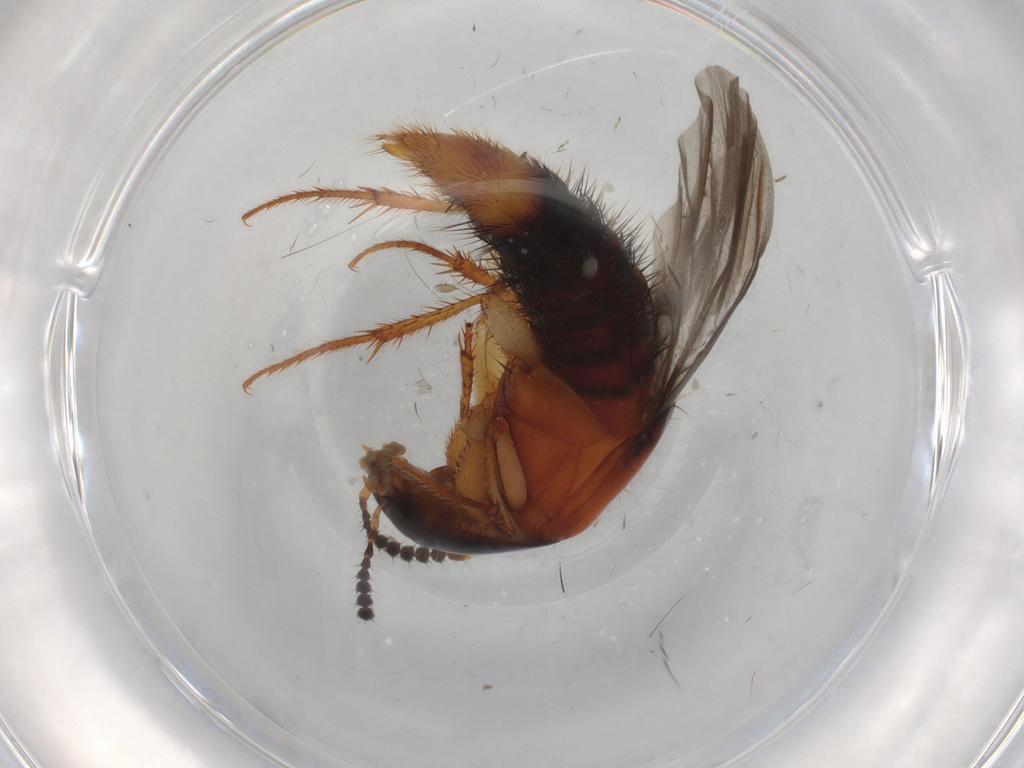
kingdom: Animalia
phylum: Arthropoda
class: Insecta
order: Coleoptera
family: Staphylinidae
